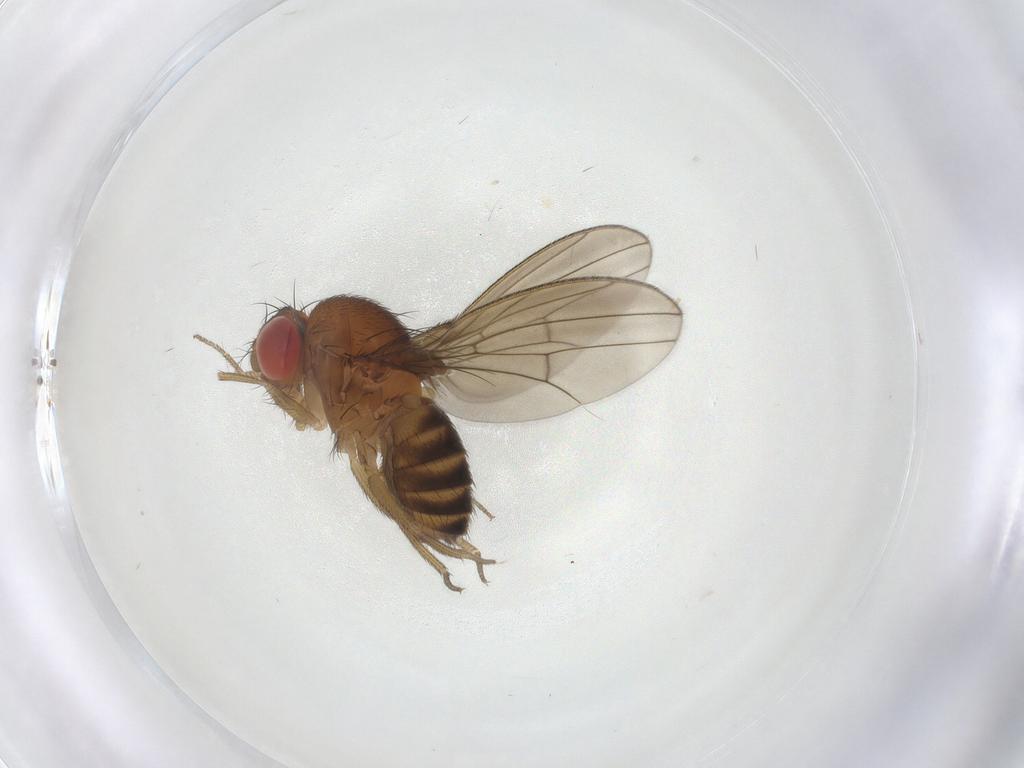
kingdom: Animalia
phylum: Arthropoda
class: Insecta
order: Diptera
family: Drosophilidae
